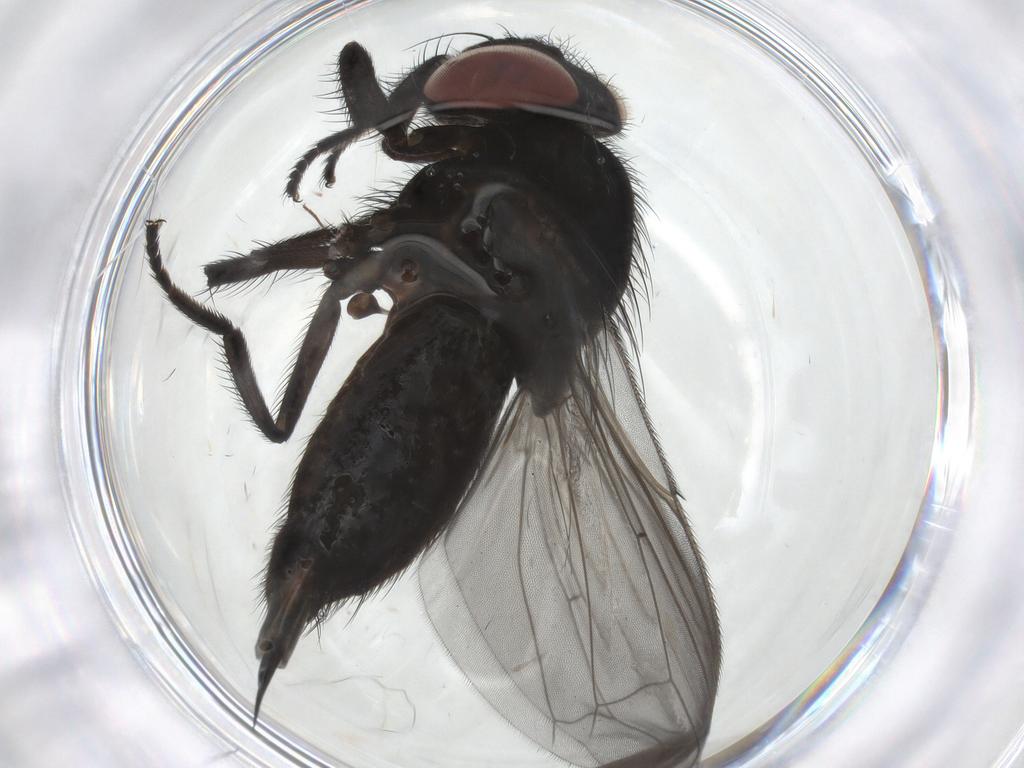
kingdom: Animalia
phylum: Arthropoda
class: Insecta
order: Diptera
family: Lonchaeidae
